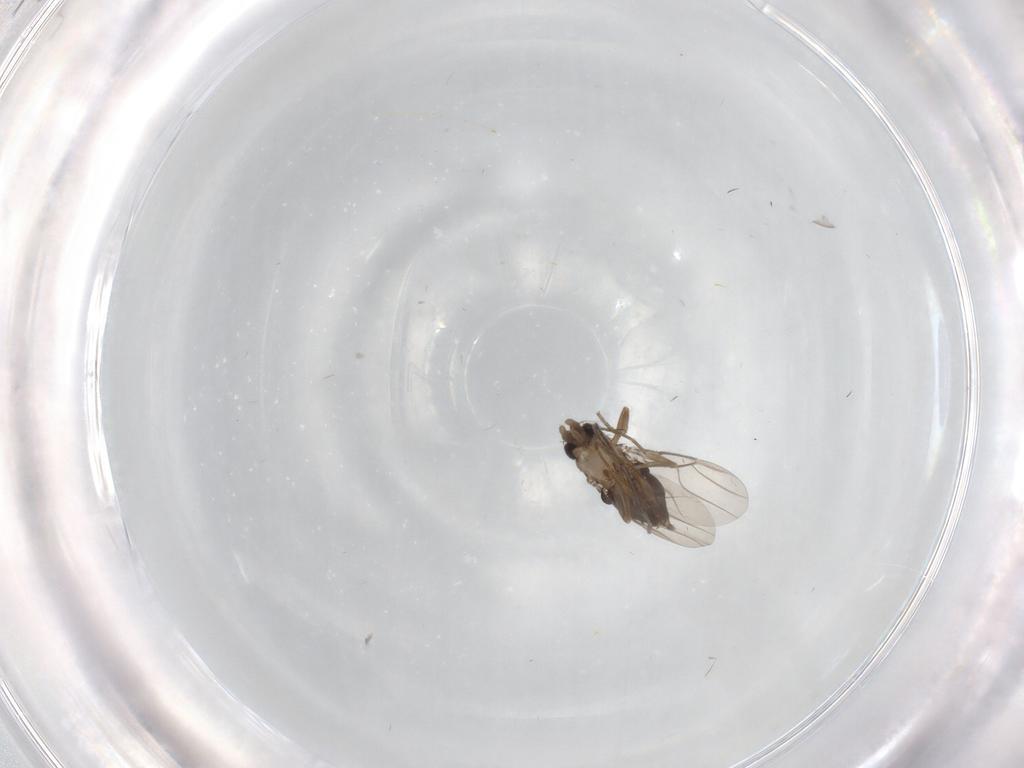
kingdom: Animalia
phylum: Arthropoda
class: Insecta
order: Diptera
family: Phoridae
